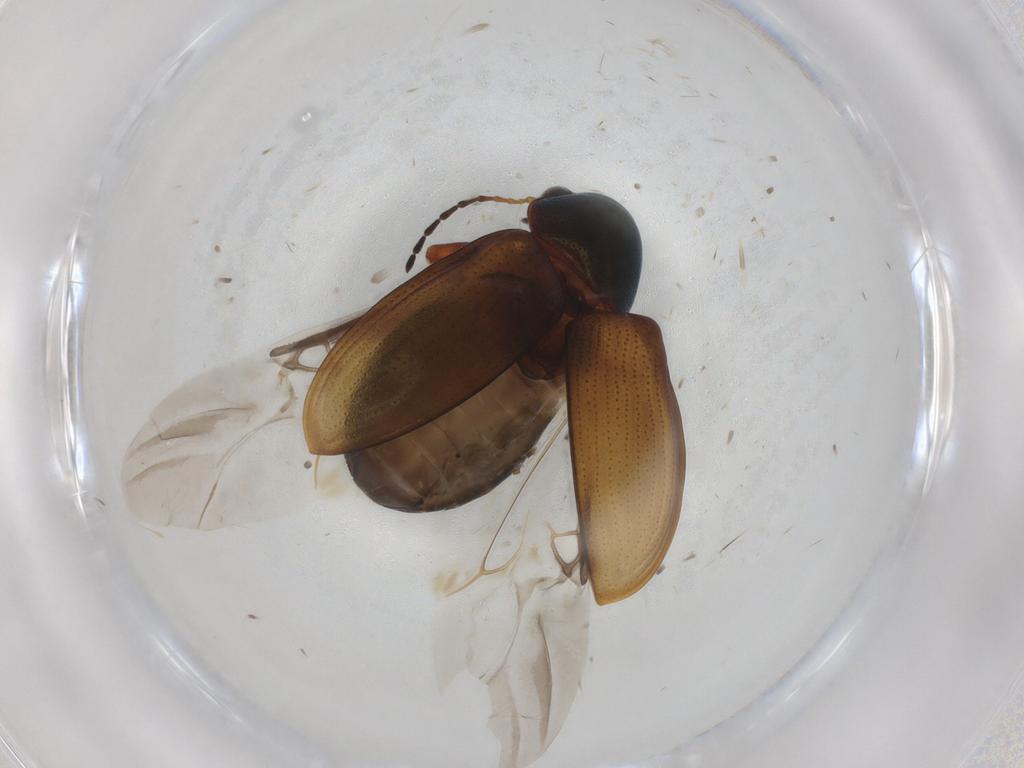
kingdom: Animalia
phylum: Arthropoda
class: Insecta
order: Coleoptera
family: Chrysomelidae
